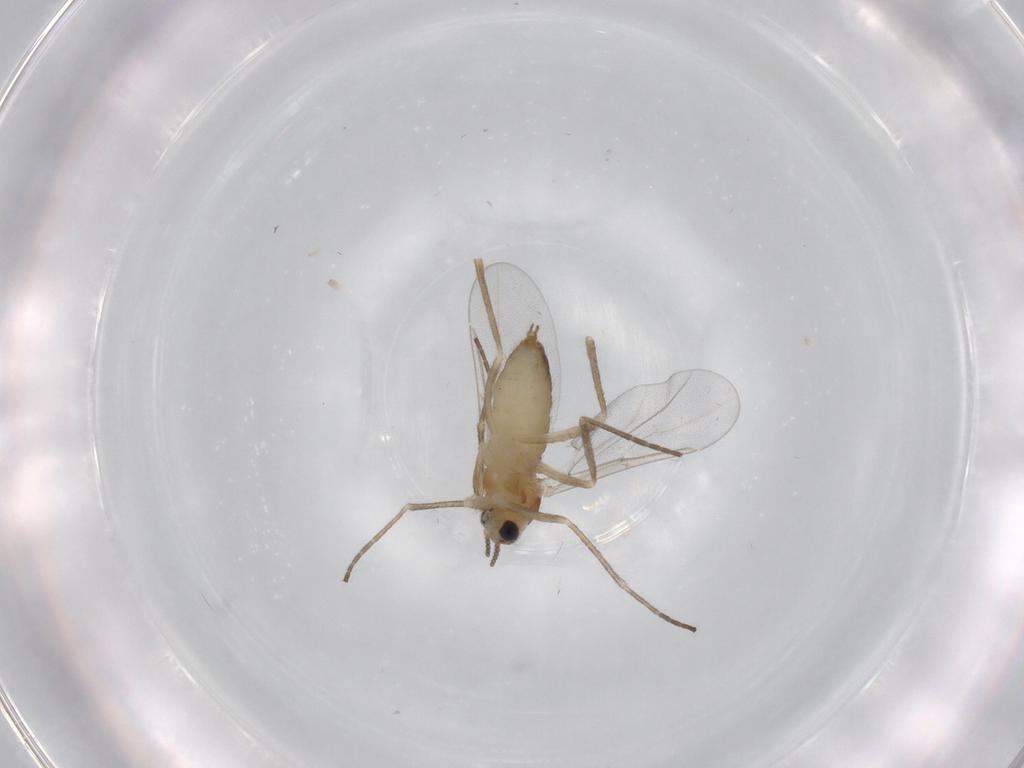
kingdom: Animalia
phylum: Arthropoda
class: Insecta
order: Diptera
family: Cecidomyiidae
